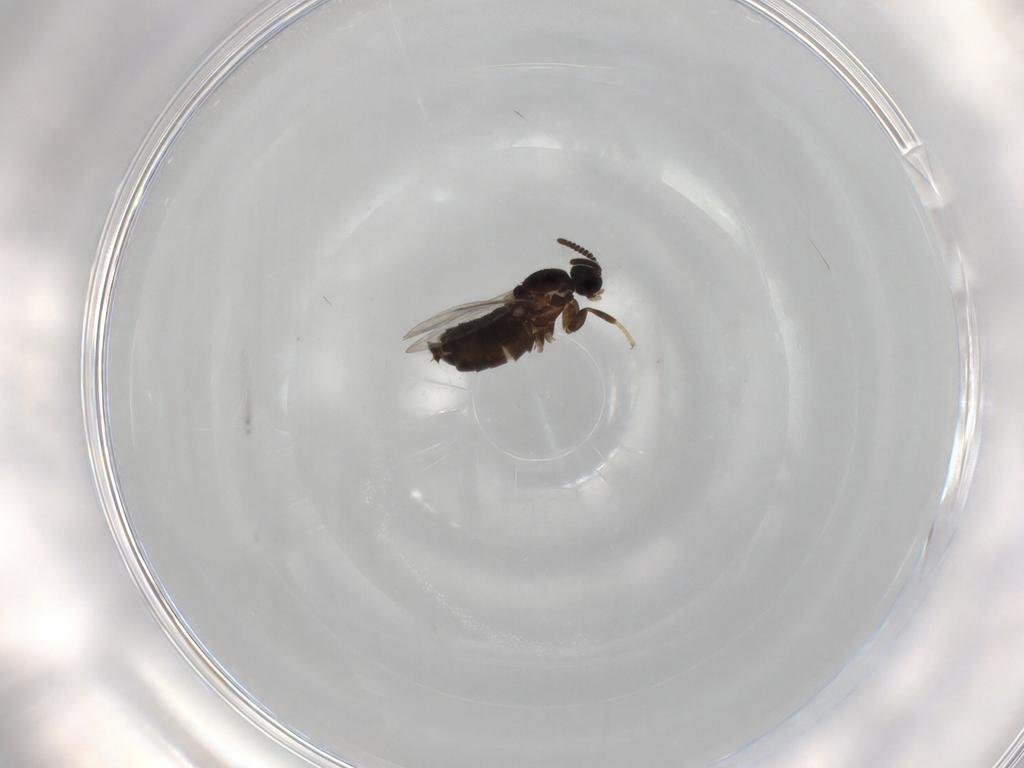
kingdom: Animalia
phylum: Arthropoda
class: Insecta
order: Diptera
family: Scatopsidae
